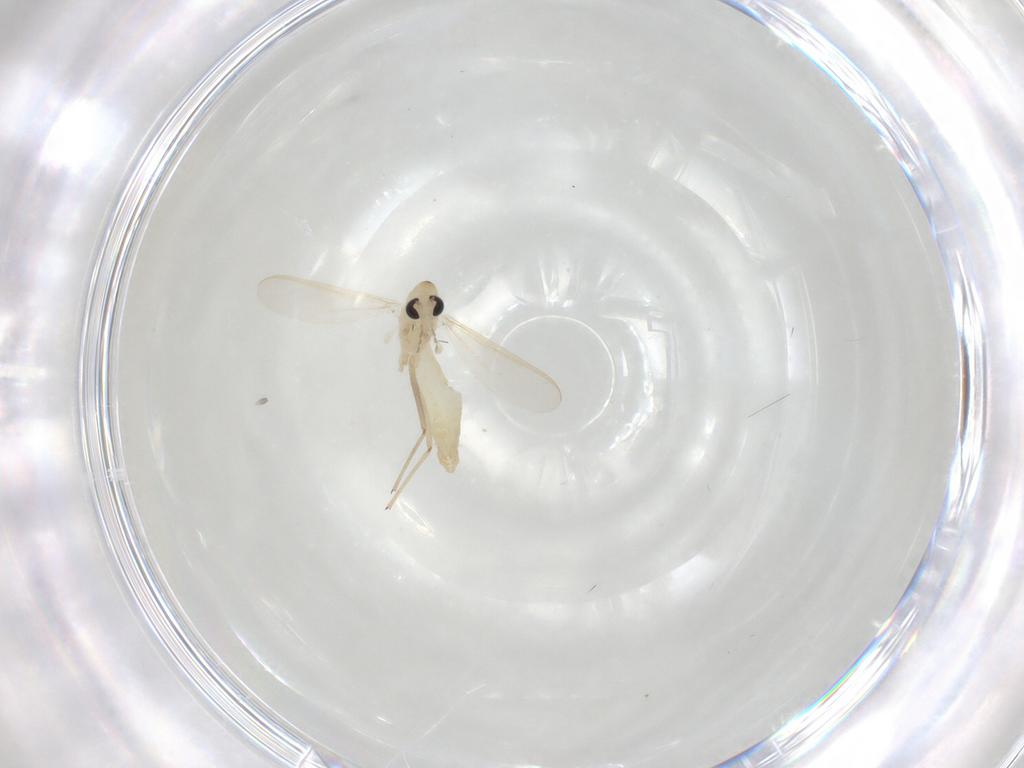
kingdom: Animalia
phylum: Arthropoda
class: Insecta
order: Diptera
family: Chironomidae
